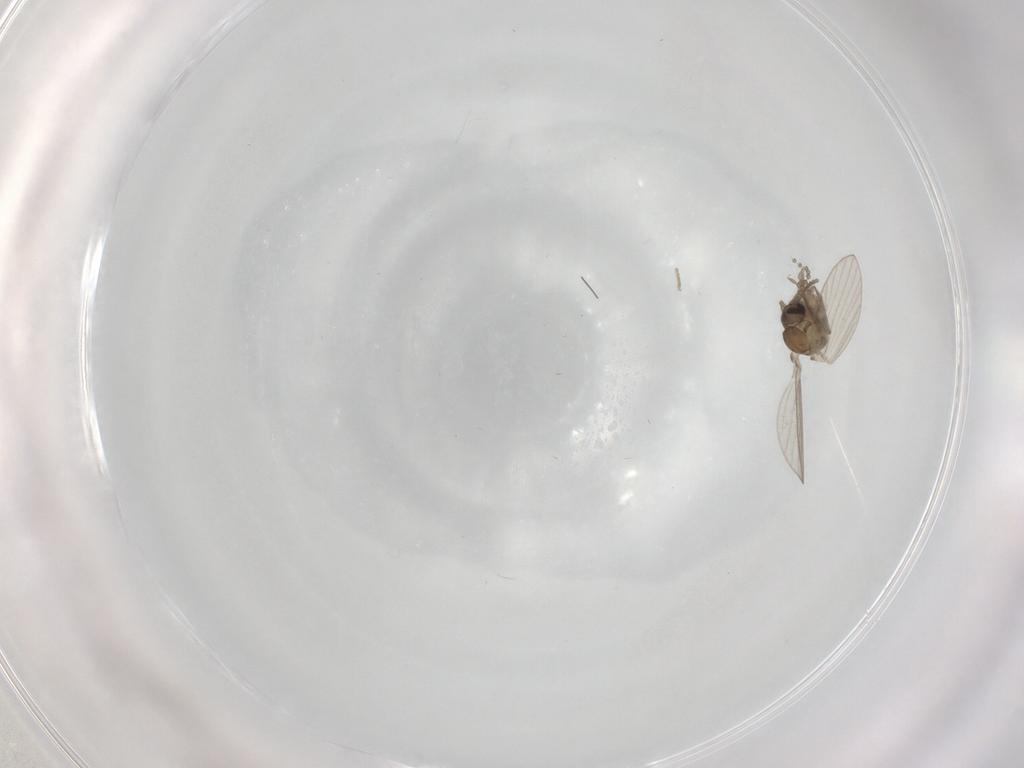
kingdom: Animalia
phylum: Arthropoda
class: Insecta
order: Diptera
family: Psychodidae
